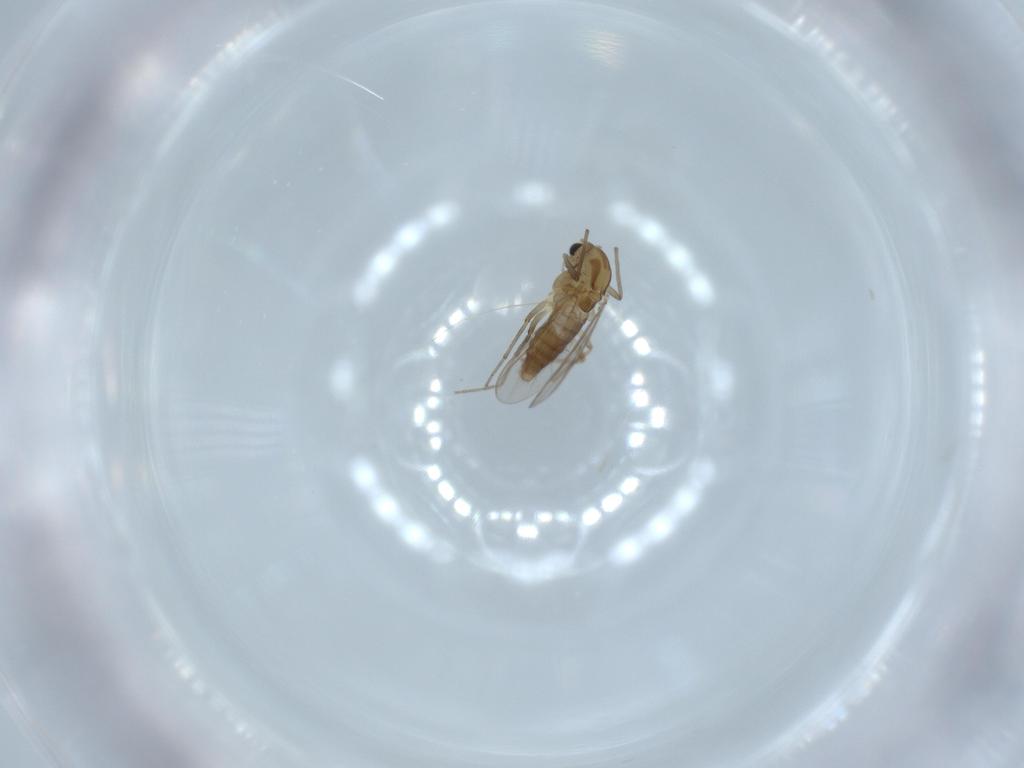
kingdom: Animalia
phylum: Arthropoda
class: Insecta
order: Diptera
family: Chironomidae
